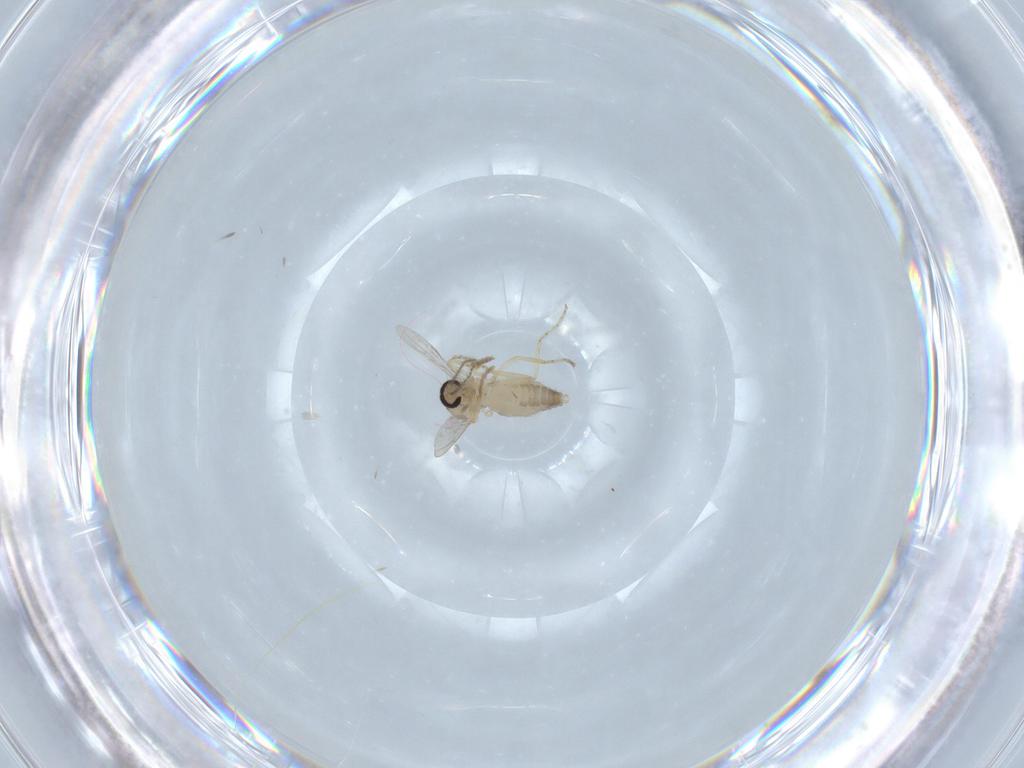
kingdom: Animalia
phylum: Arthropoda
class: Insecta
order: Diptera
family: Ceratopogonidae
